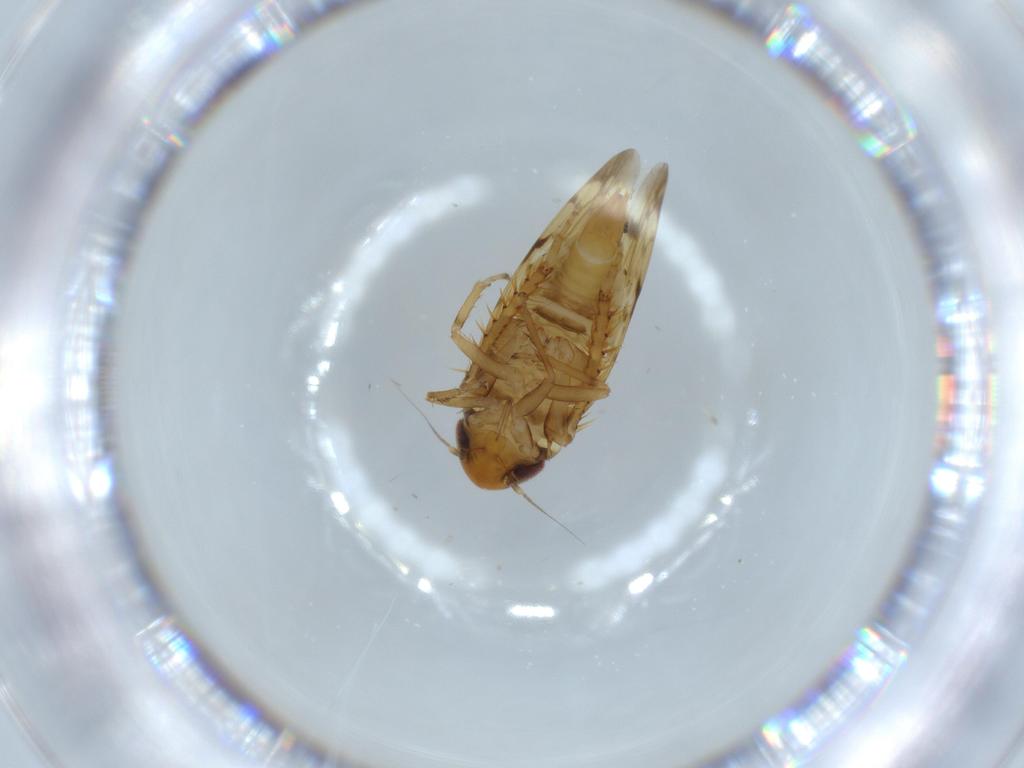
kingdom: Animalia
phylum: Arthropoda
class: Insecta
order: Hemiptera
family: Cicadellidae
